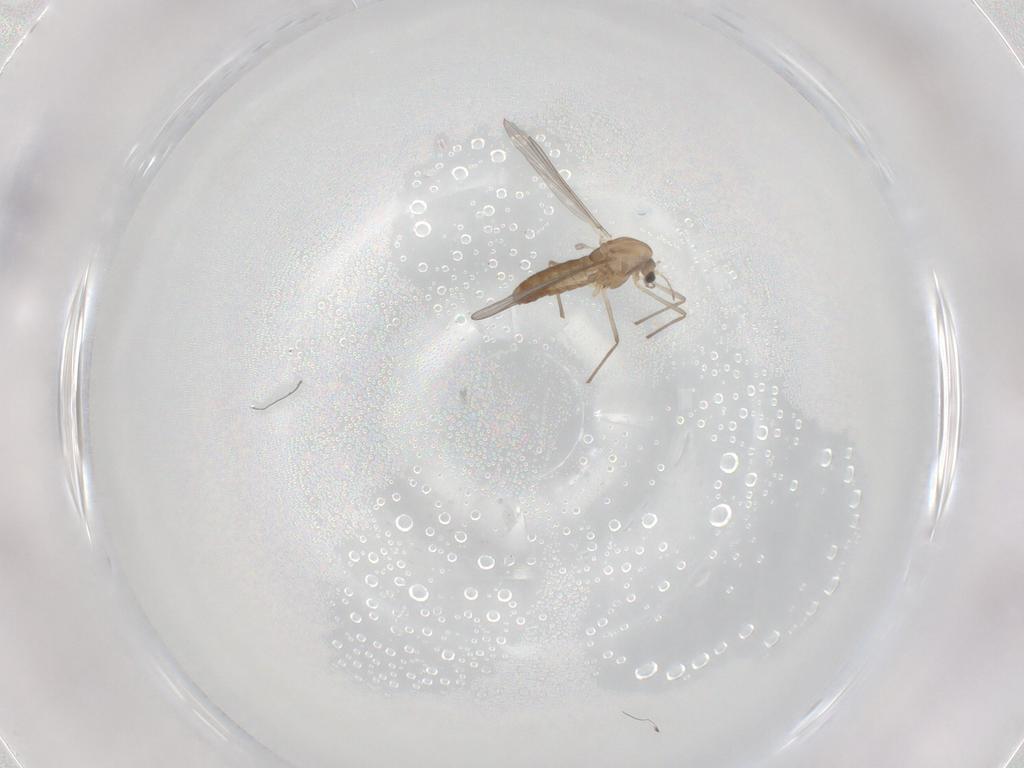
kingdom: Animalia
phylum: Arthropoda
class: Insecta
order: Diptera
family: Chironomidae
